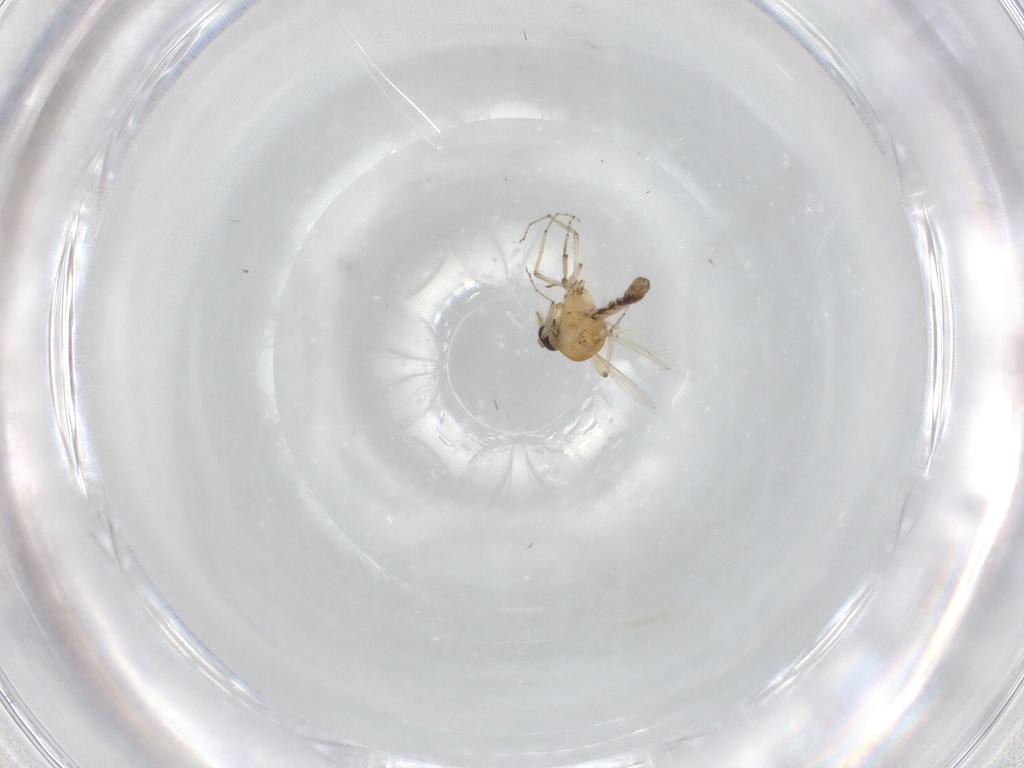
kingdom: Animalia
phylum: Arthropoda
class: Insecta
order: Diptera
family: Ceratopogonidae
